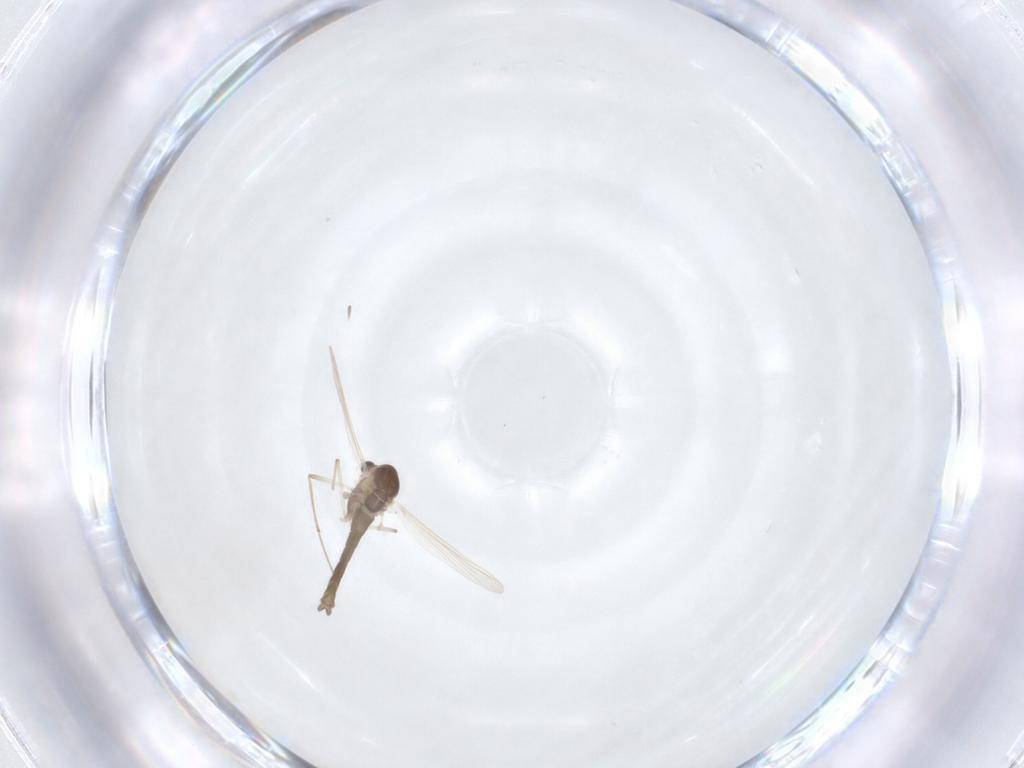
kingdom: Animalia
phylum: Arthropoda
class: Insecta
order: Diptera
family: Chironomidae
